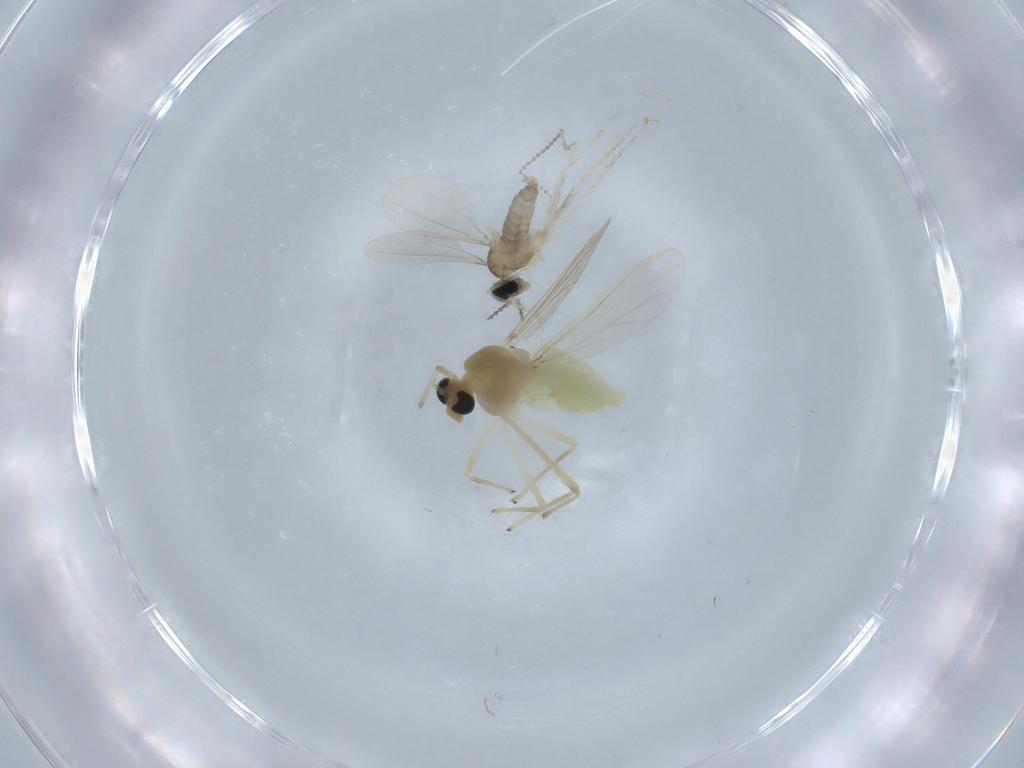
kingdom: Animalia
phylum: Arthropoda
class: Insecta
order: Diptera
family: Chironomidae
